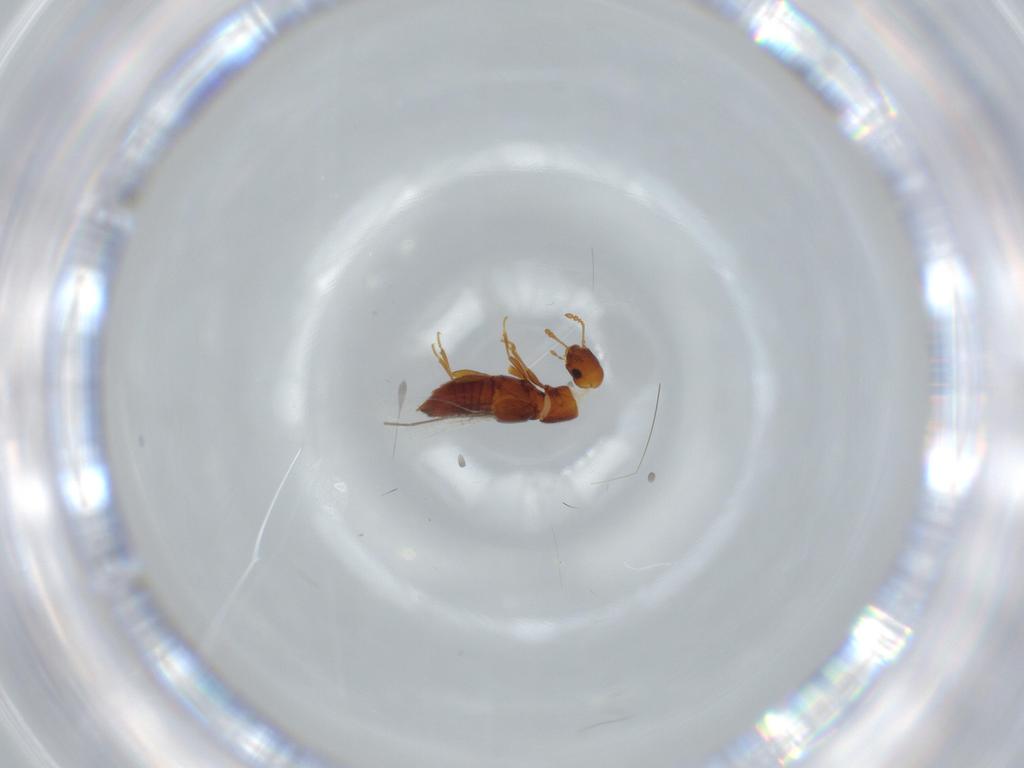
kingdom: Animalia
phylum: Arthropoda
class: Insecta
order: Coleoptera
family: Staphylinidae
